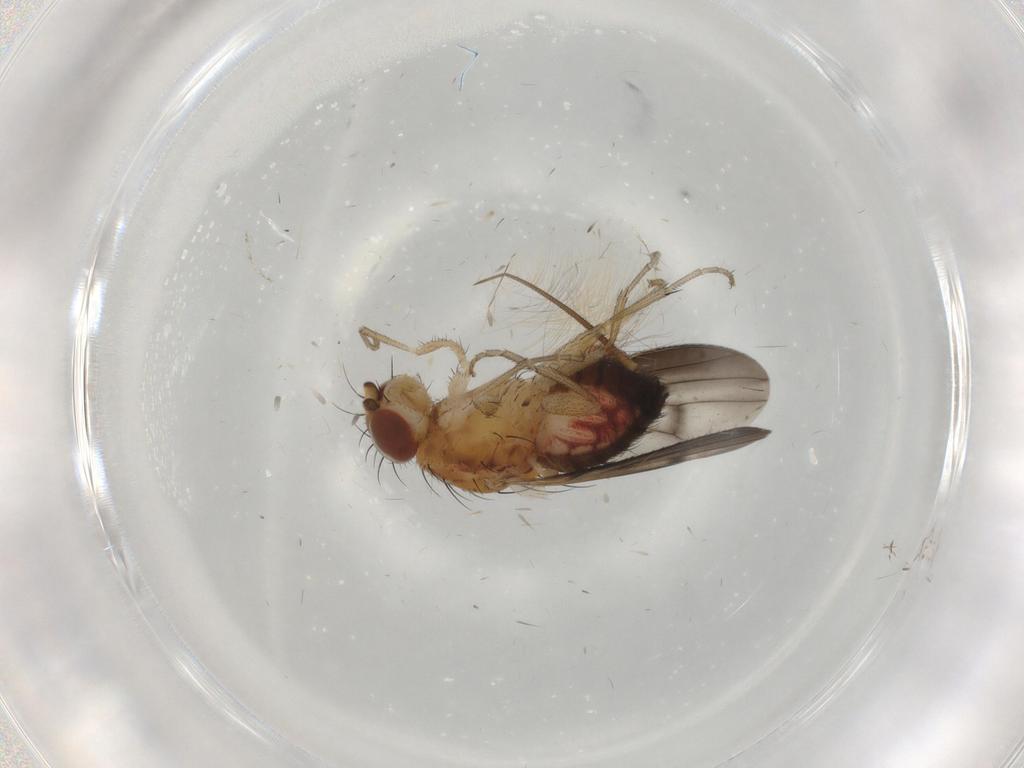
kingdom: Animalia
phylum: Arthropoda
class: Insecta
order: Diptera
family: Heleomyzidae
